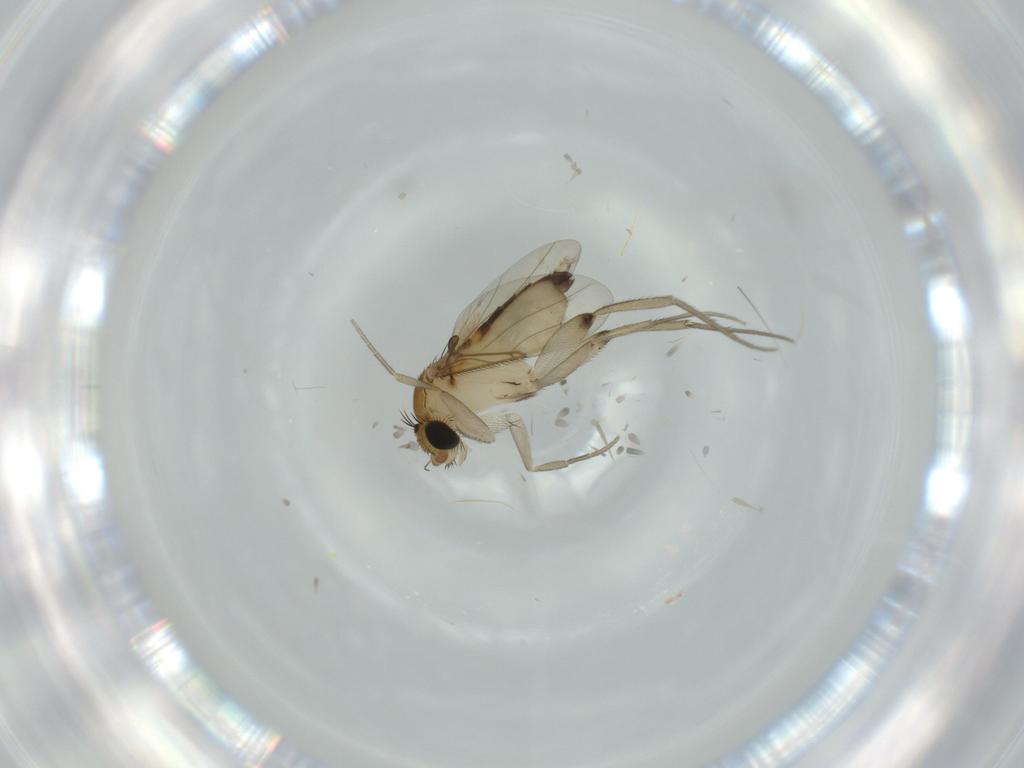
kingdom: Animalia
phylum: Arthropoda
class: Insecta
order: Diptera
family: Phoridae
